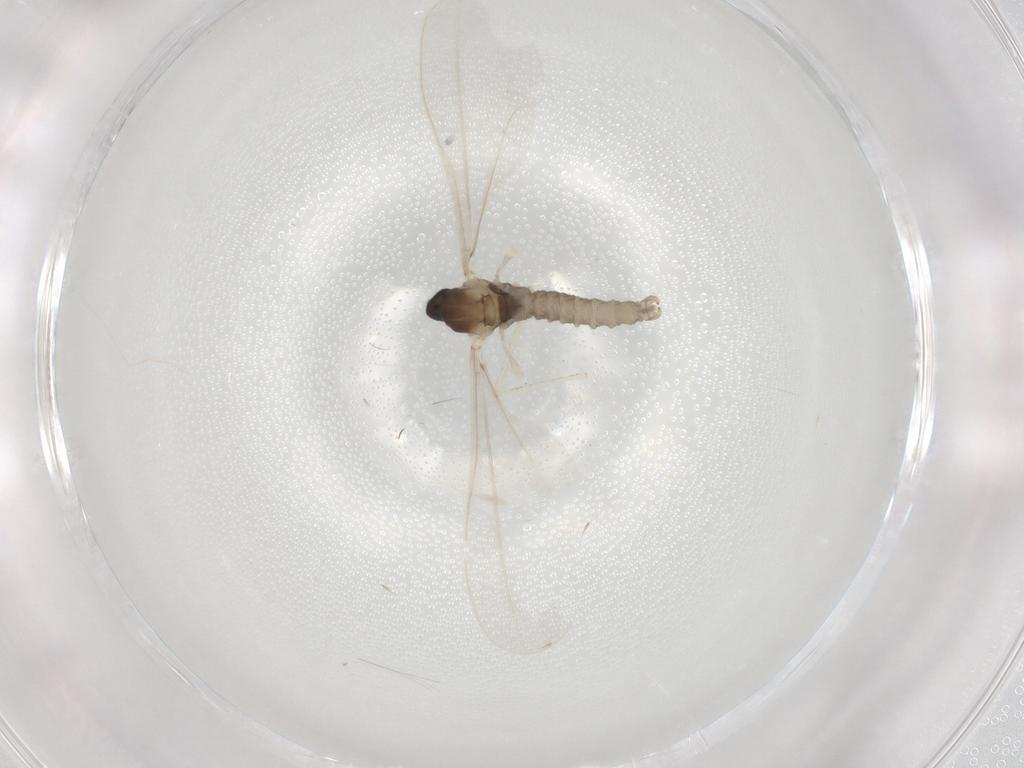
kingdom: Animalia
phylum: Arthropoda
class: Insecta
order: Diptera
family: Cecidomyiidae
